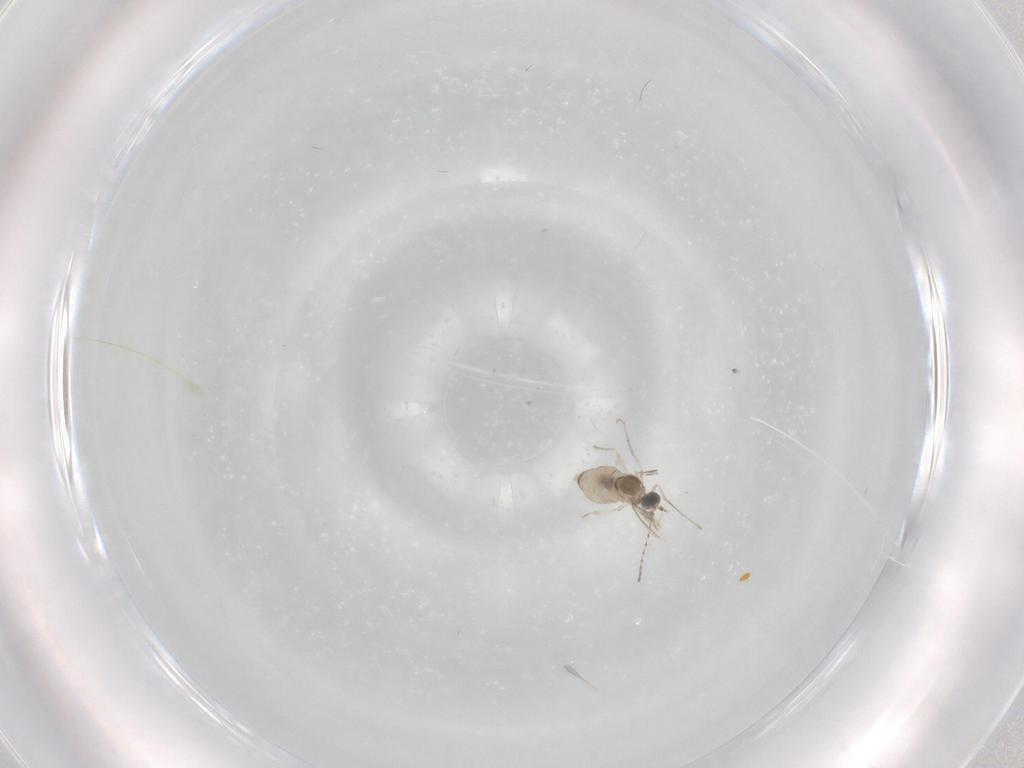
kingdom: Animalia
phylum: Arthropoda
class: Insecta
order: Diptera
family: Cecidomyiidae
